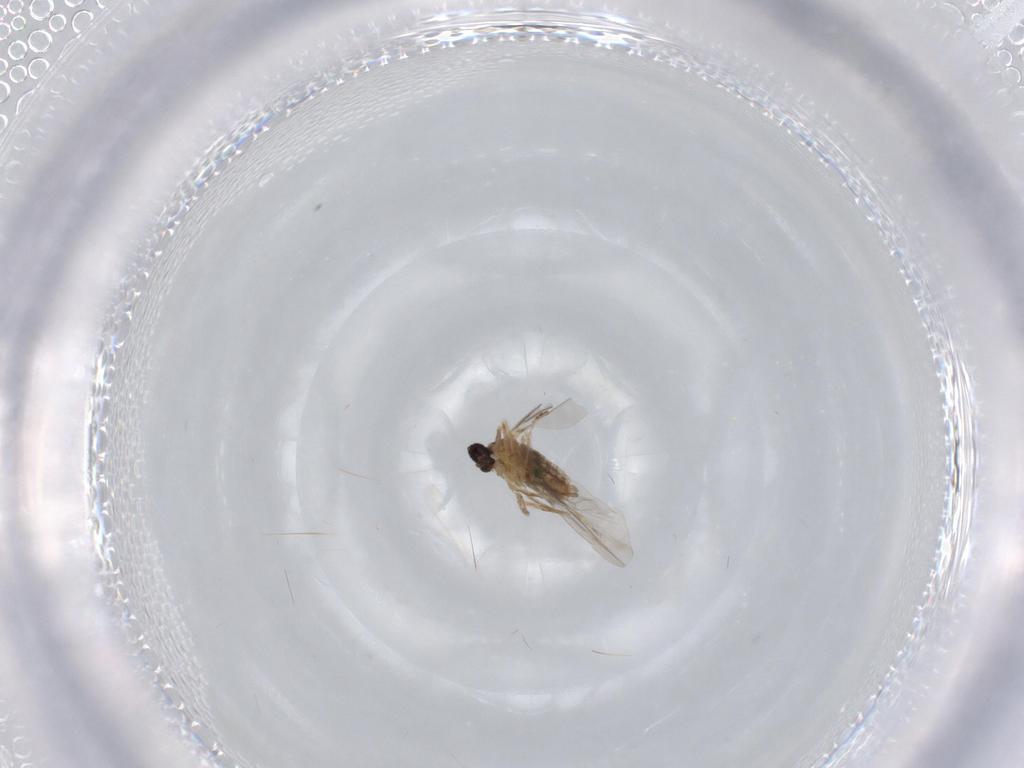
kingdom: Animalia
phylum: Arthropoda
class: Insecta
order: Diptera
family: Cecidomyiidae
